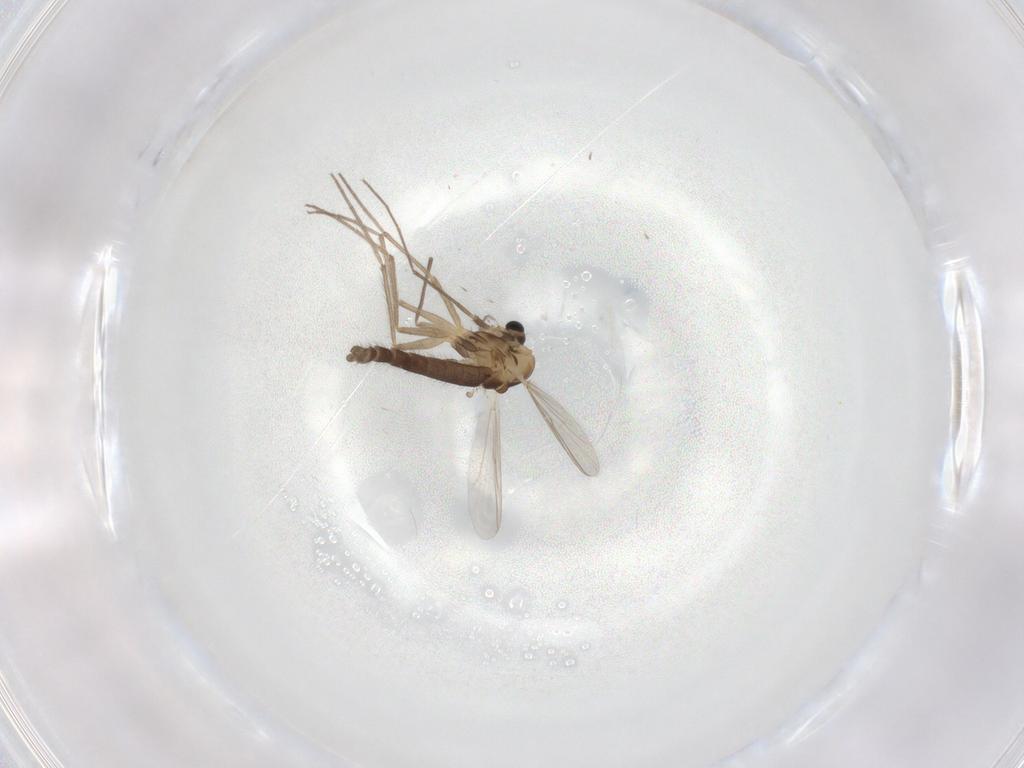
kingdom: Animalia
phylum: Arthropoda
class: Insecta
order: Diptera
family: Chironomidae
